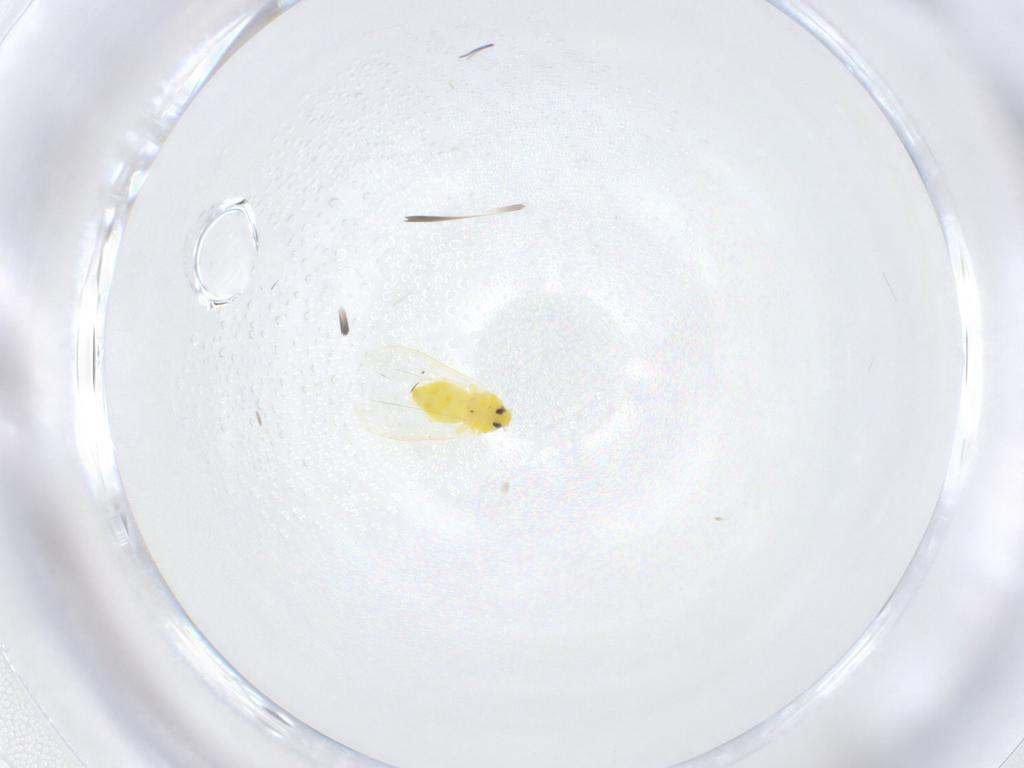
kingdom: Animalia
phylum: Arthropoda
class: Insecta
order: Hemiptera
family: Aleyrodidae
